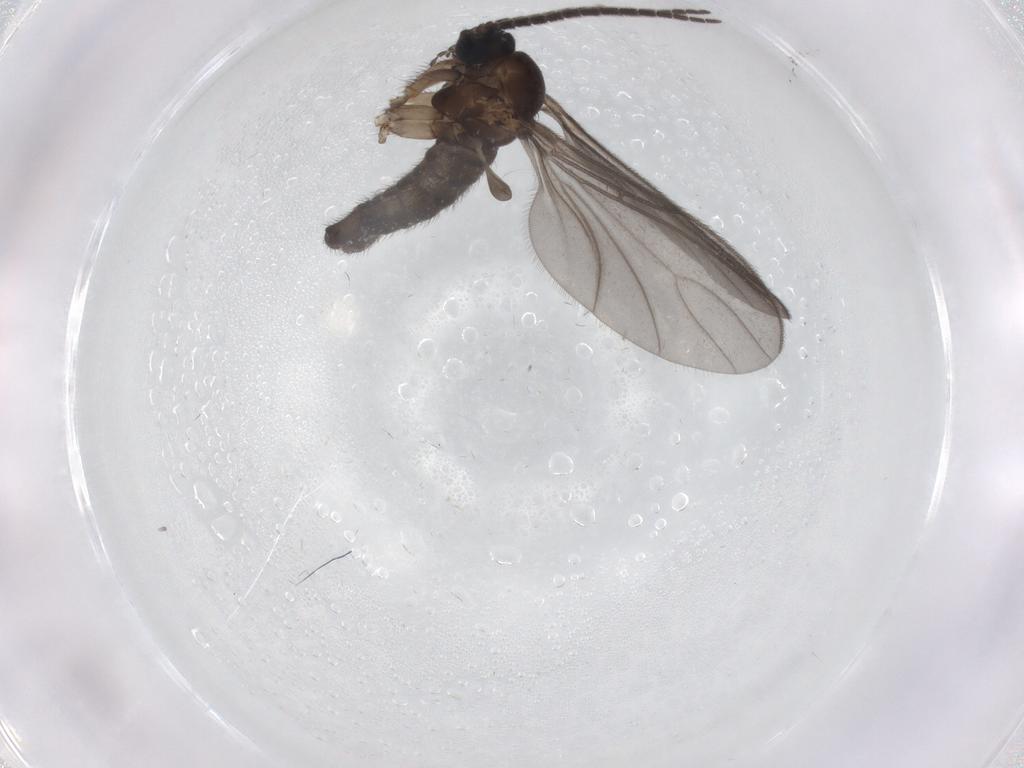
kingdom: Animalia
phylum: Arthropoda
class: Insecta
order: Diptera
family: Sciaridae
